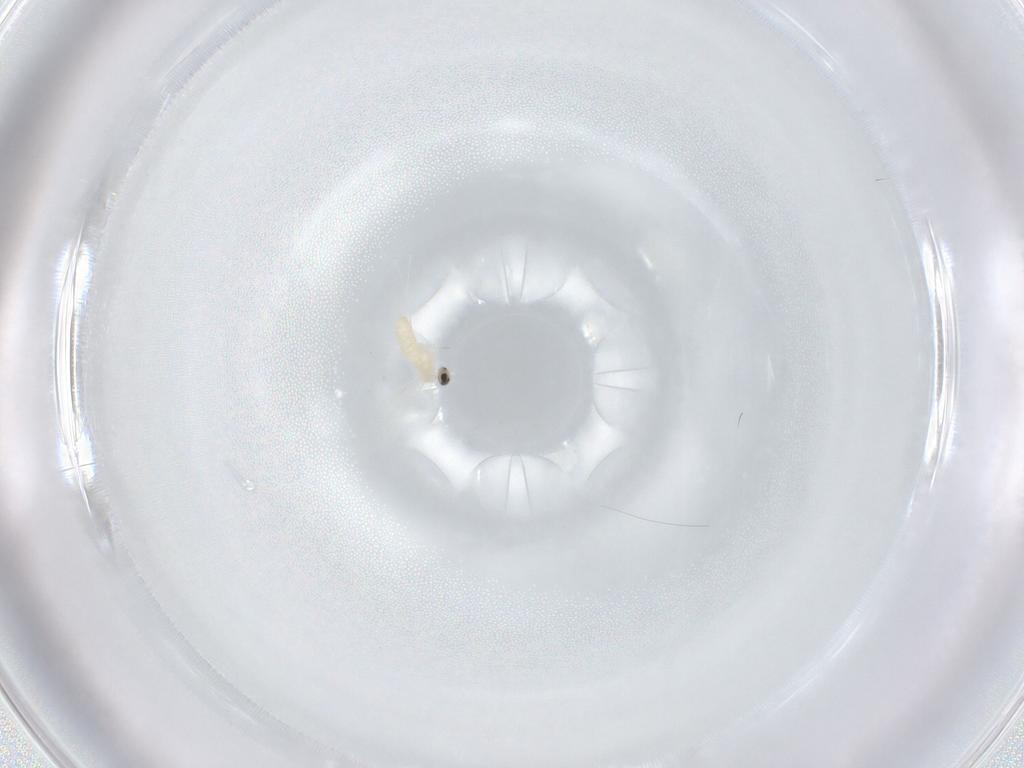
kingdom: Animalia
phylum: Arthropoda
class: Insecta
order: Diptera
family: Cecidomyiidae
